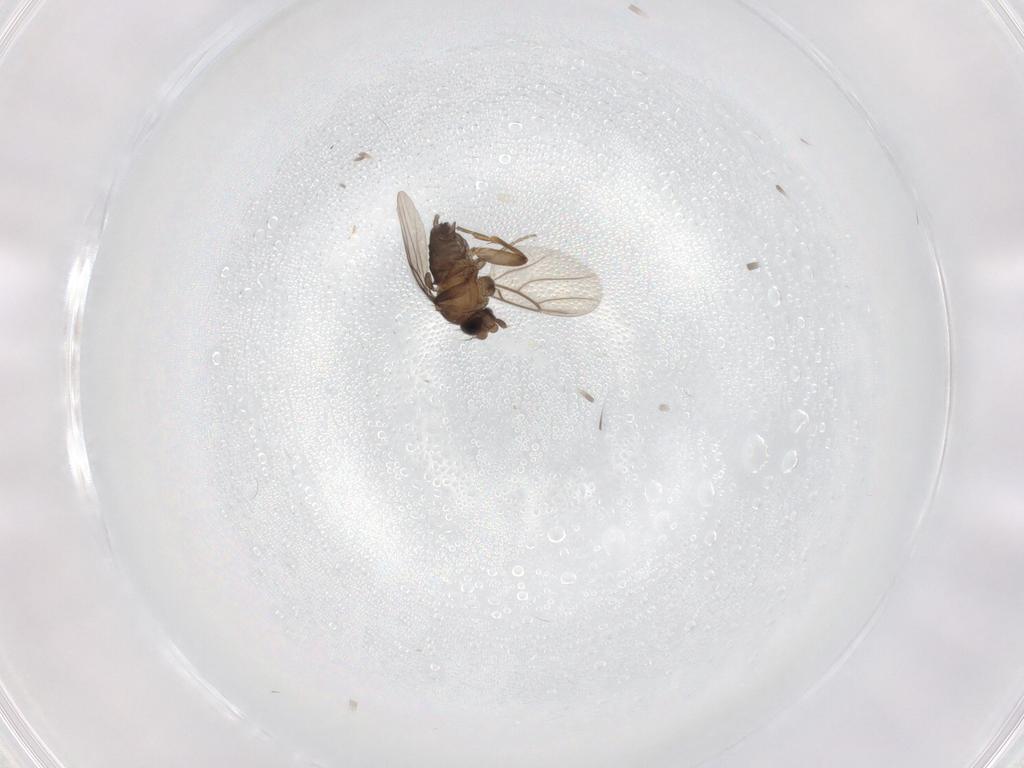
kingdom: Animalia
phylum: Arthropoda
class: Insecta
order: Diptera
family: Phoridae
